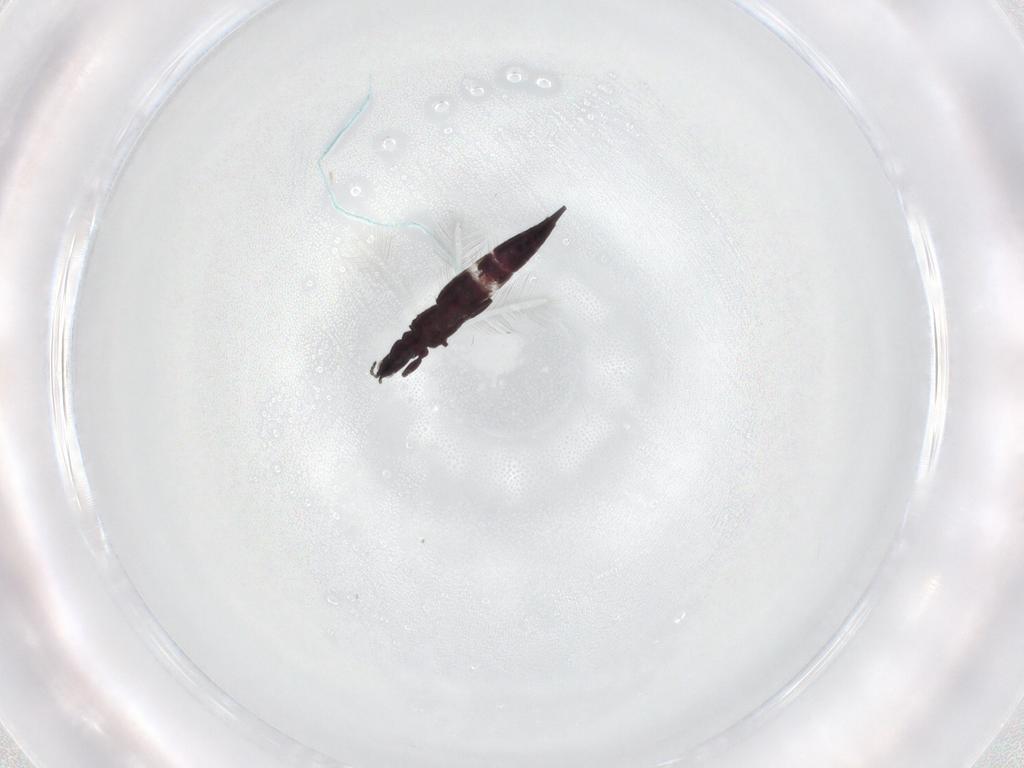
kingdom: Animalia
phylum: Arthropoda
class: Insecta
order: Thysanoptera
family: Phlaeothripidae
